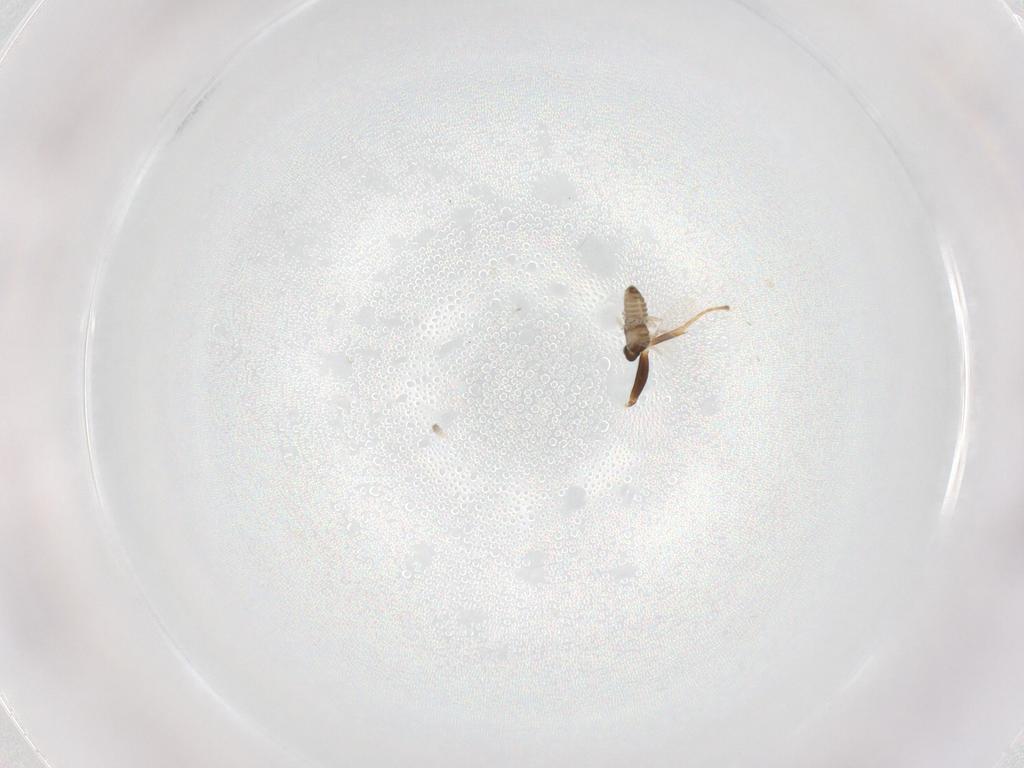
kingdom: Animalia
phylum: Arthropoda
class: Insecta
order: Diptera
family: Cecidomyiidae
